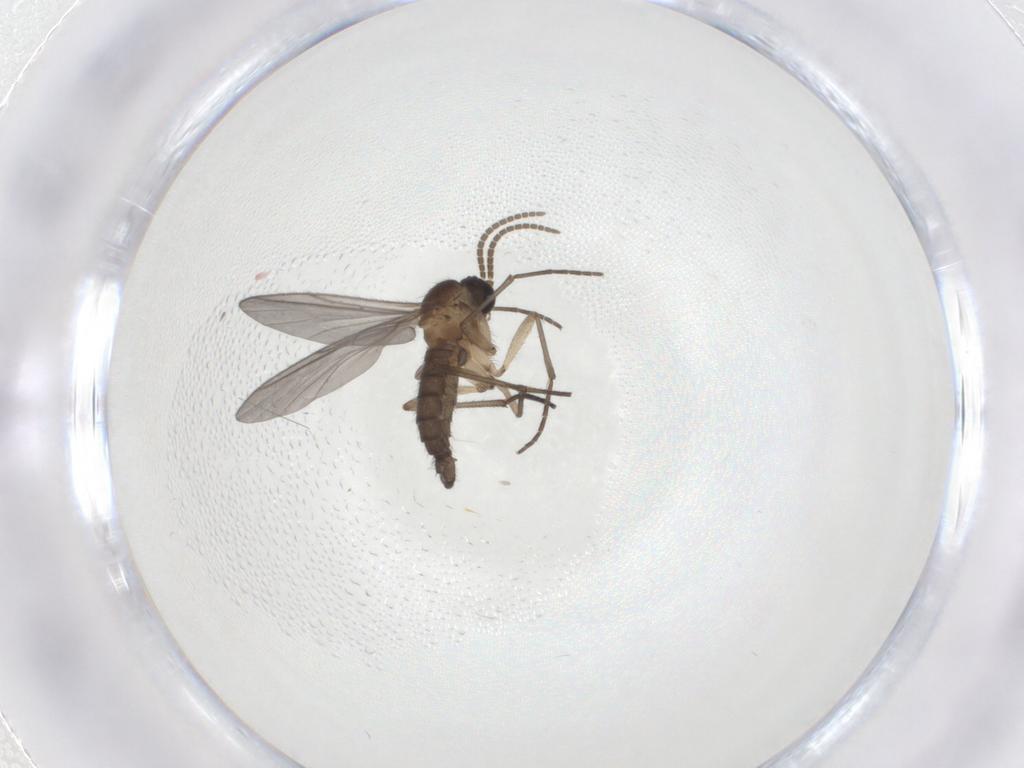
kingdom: Animalia
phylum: Arthropoda
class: Insecta
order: Diptera
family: Sciaridae
